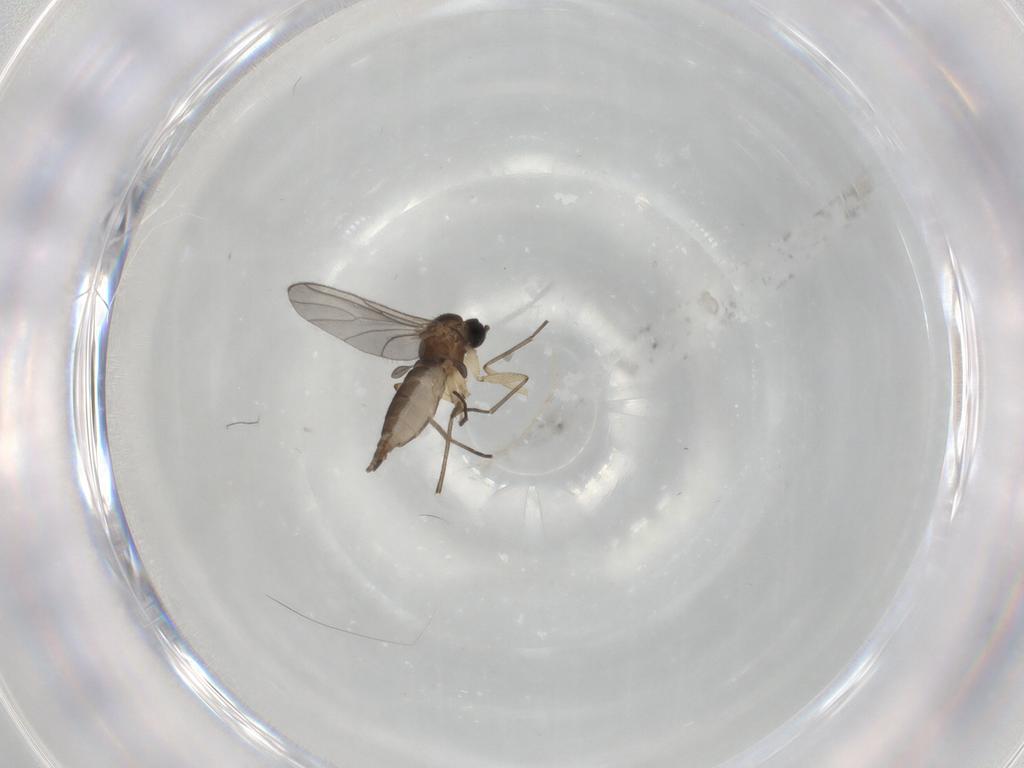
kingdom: Animalia
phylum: Arthropoda
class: Insecta
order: Diptera
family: Sciaridae
